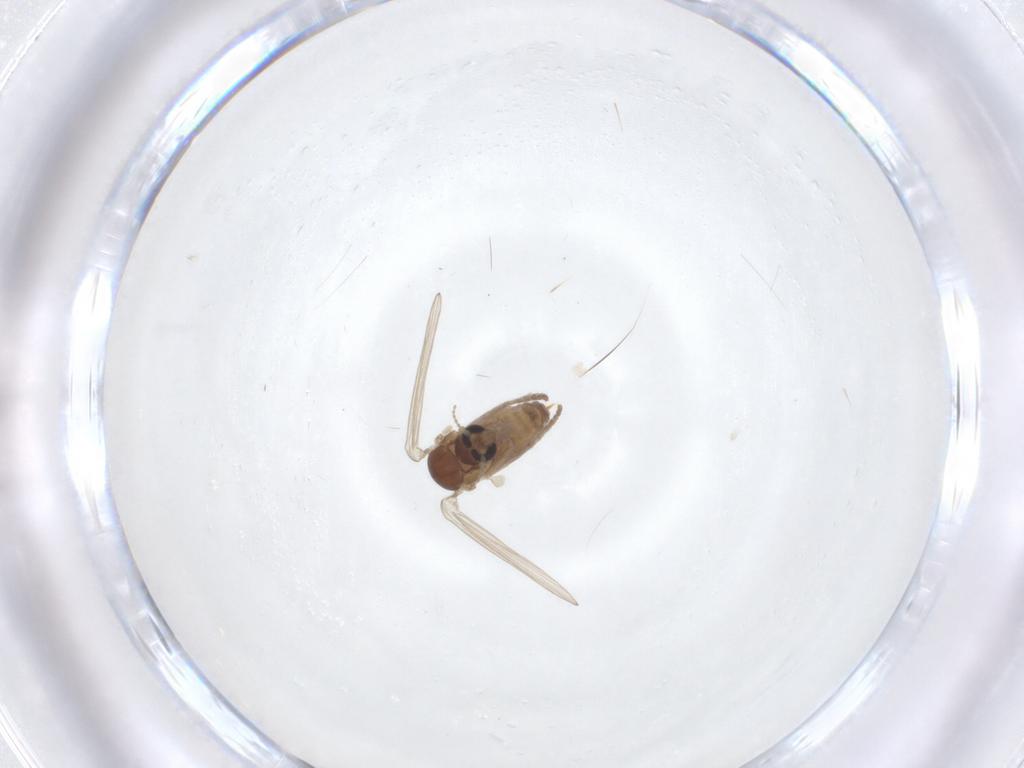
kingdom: Animalia
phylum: Arthropoda
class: Insecta
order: Diptera
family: Psychodidae
